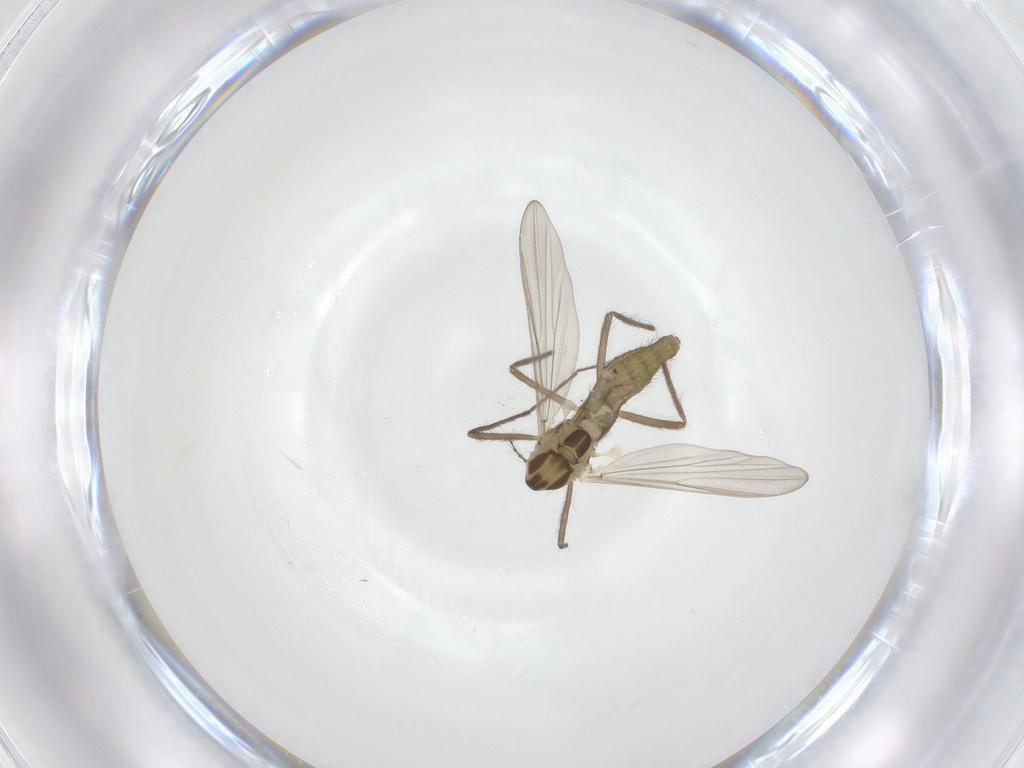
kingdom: Animalia
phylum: Arthropoda
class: Insecta
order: Diptera
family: Chironomidae
